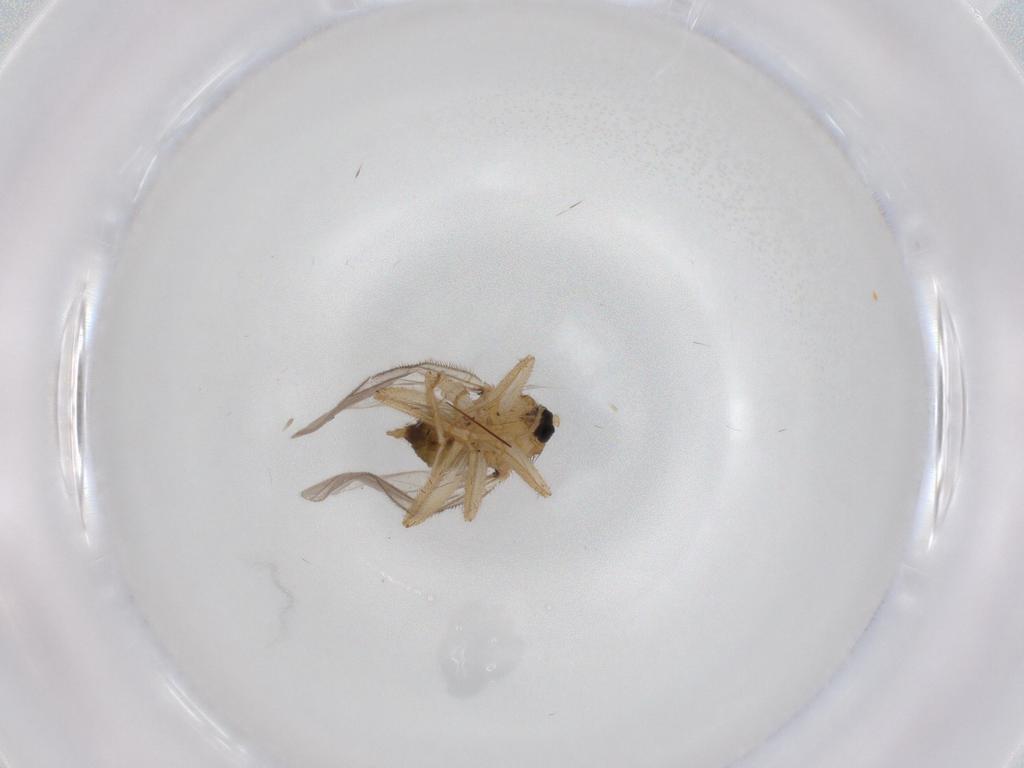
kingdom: Animalia
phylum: Arthropoda
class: Insecta
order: Diptera
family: Hybotidae
